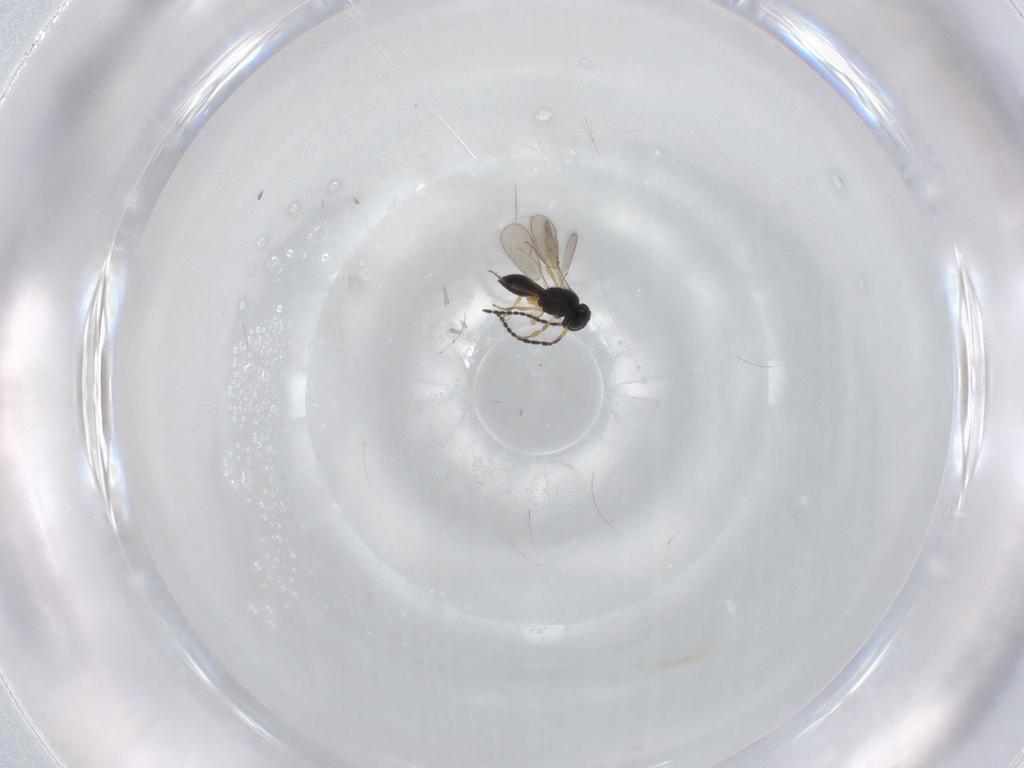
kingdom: Animalia
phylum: Arthropoda
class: Insecta
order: Hymenoptera
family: Scelionidae
